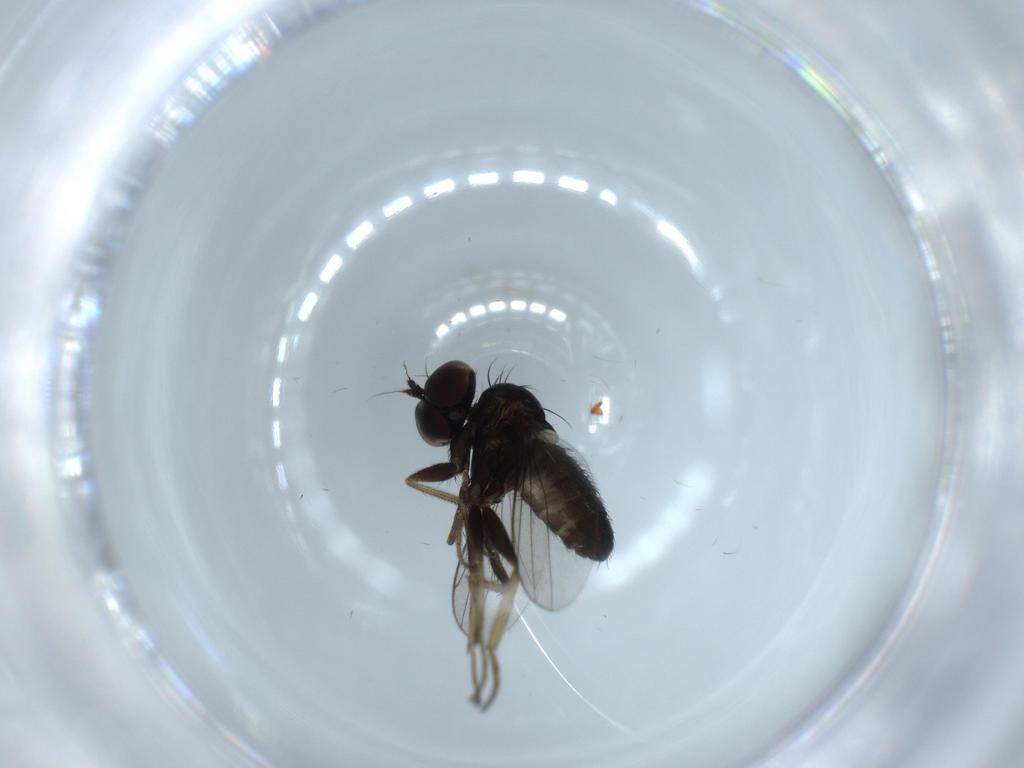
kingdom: Animalia
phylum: Arthropoda
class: Insecta
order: Diptera
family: Dolichopodidae
